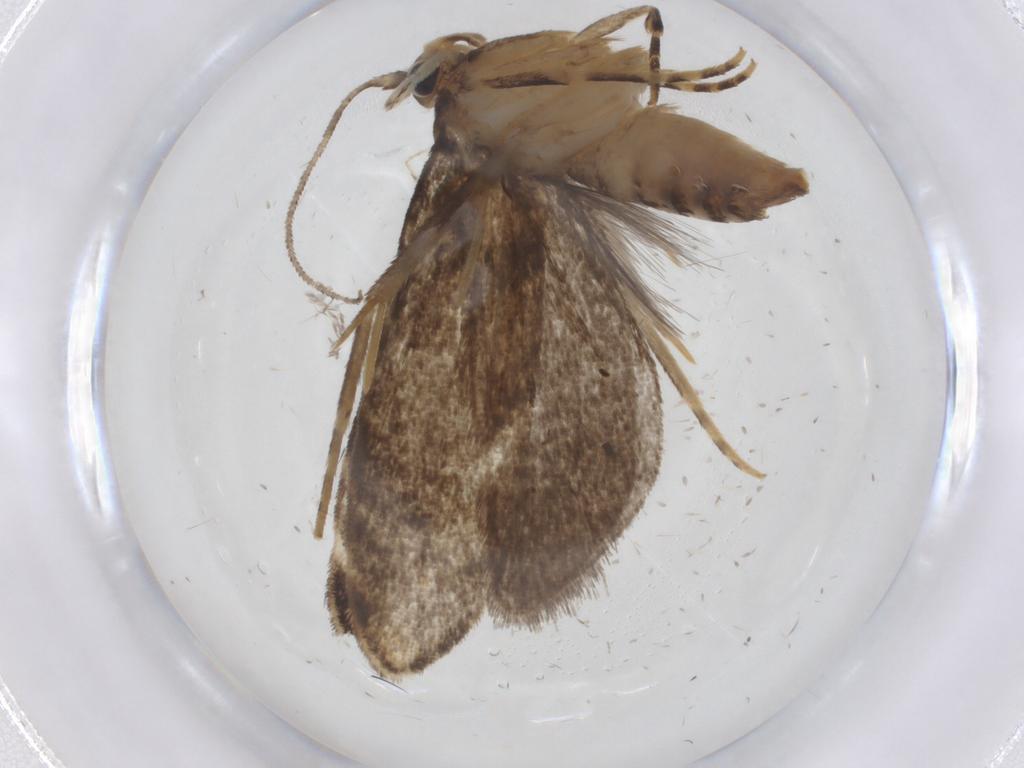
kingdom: Animalia
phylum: Arthropoda
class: Insecta
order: Lepidoptera
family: Dryadaulidae
